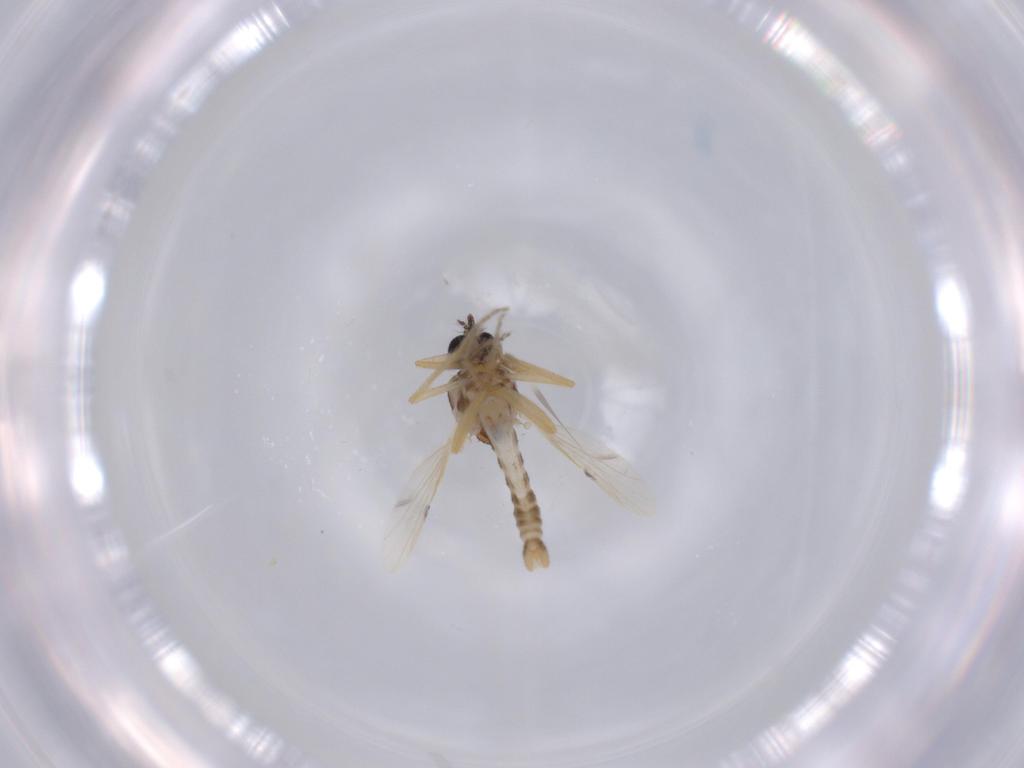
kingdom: Animalia
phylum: Arthropoda
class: Insecta
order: Diptera
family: Ceratopogonidae
